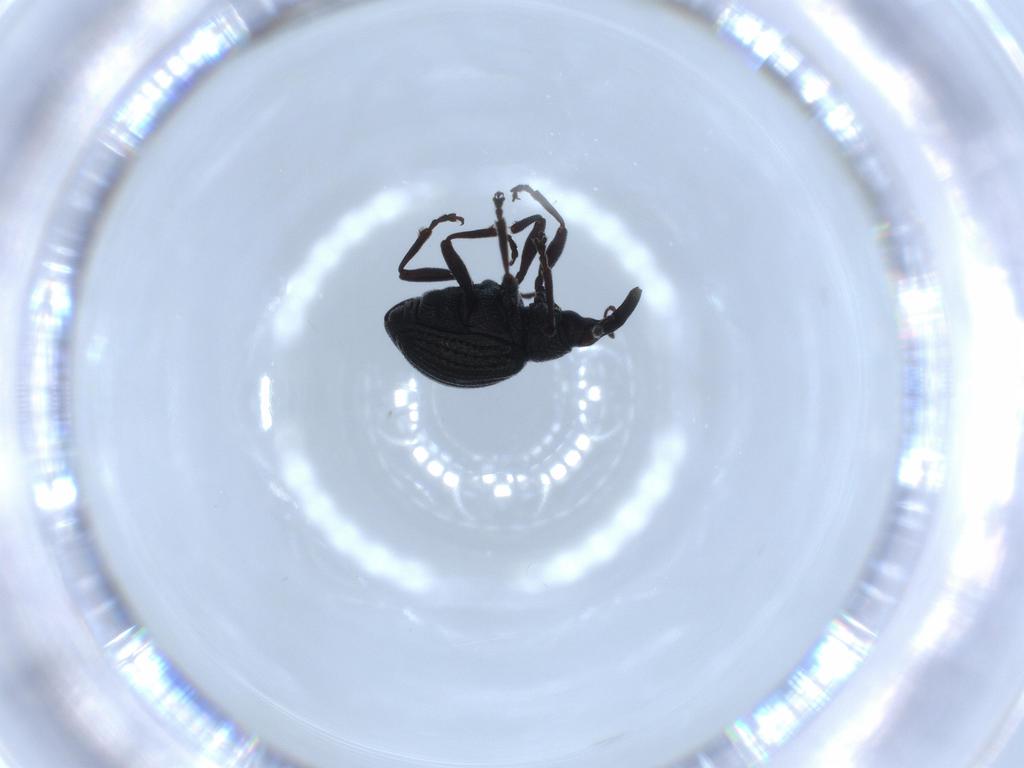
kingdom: Animalia
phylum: Arthropoda
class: Insecta
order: Coleoptera
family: Brentidae
